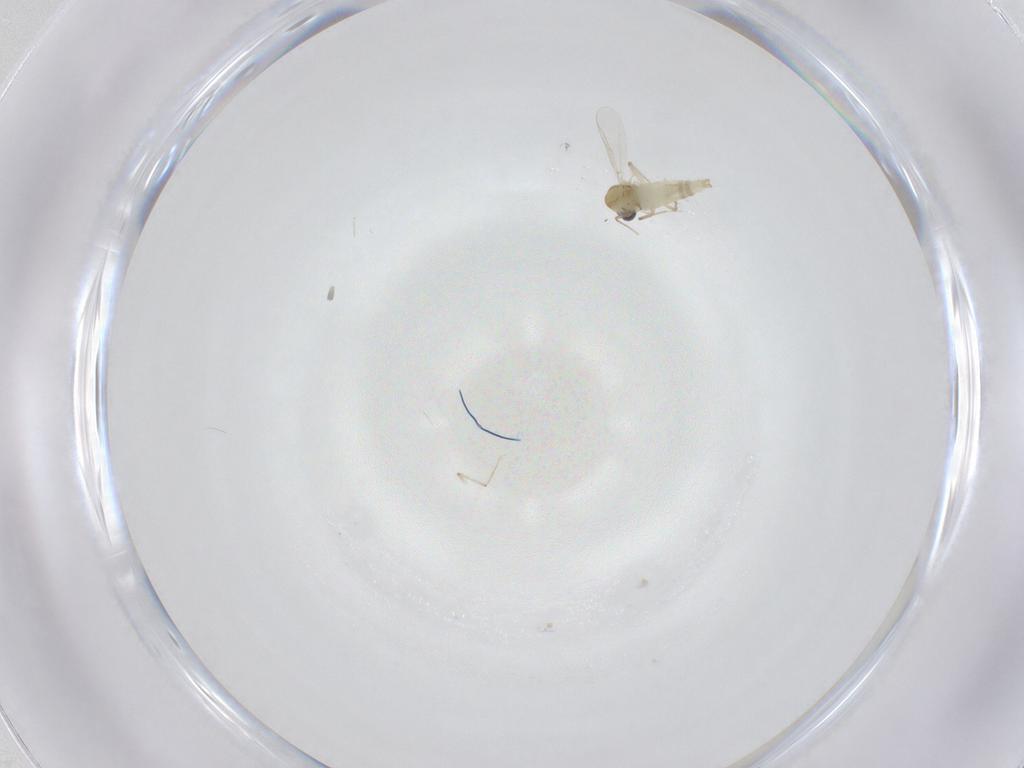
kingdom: Animalia
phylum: Arthropoda
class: Insecta
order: Diptera
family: Chironomidae
